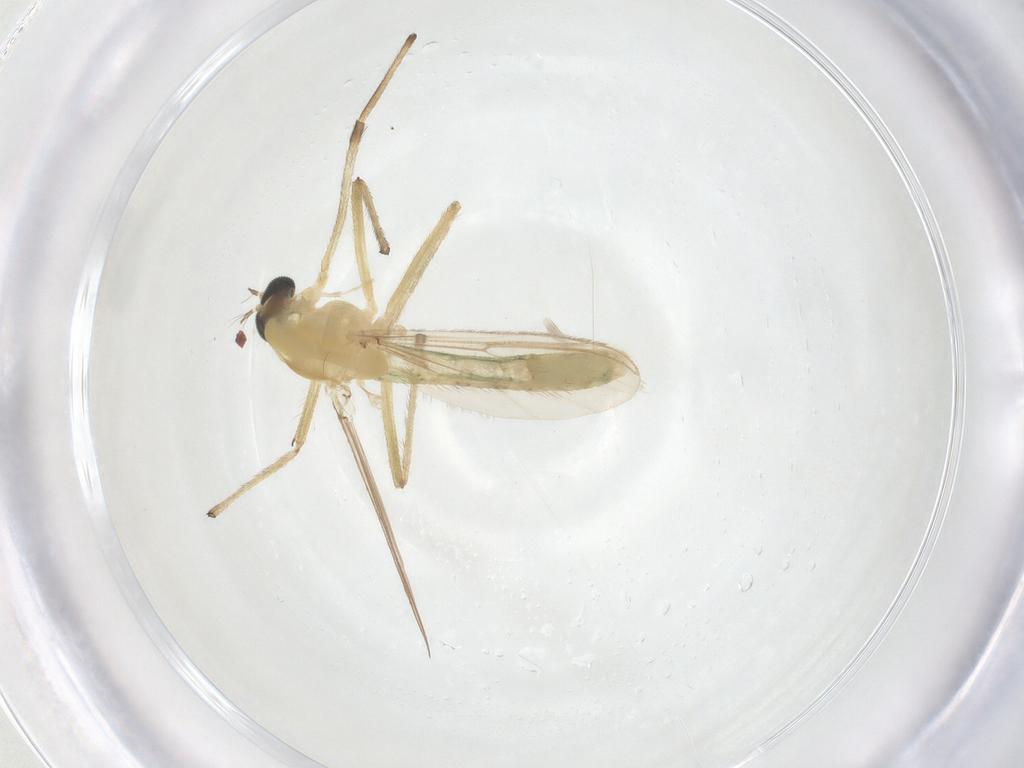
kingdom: Animalia
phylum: Arthropoda
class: Insecta
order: Diptera
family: Chironomidae
